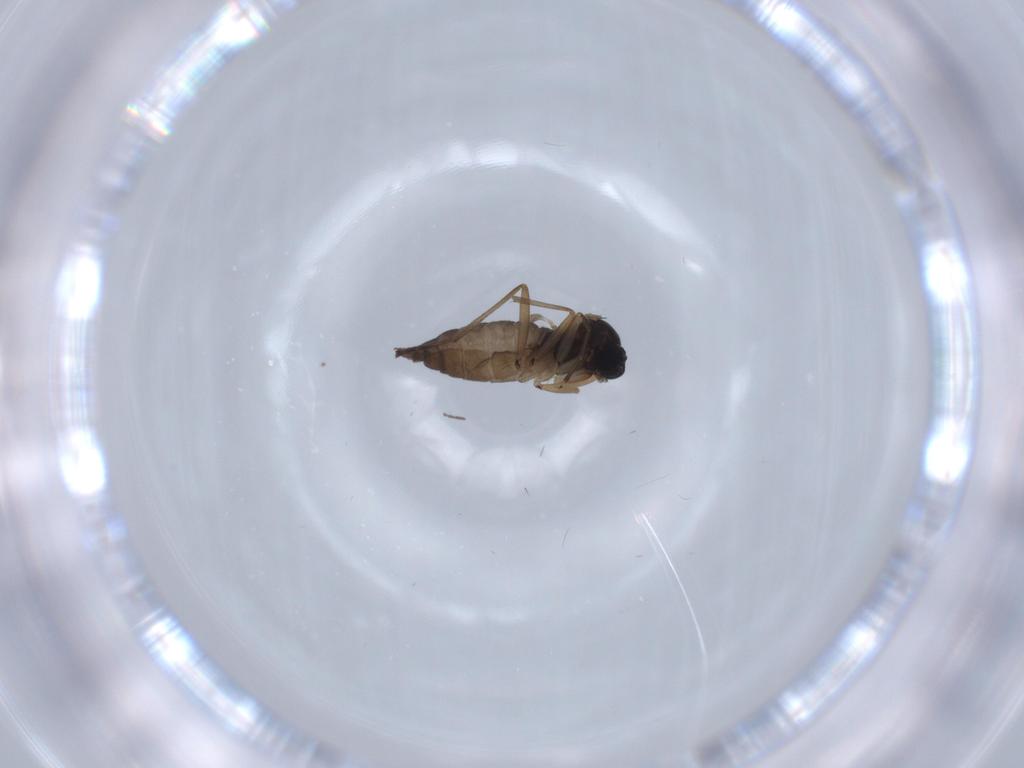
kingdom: Animalia
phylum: Arthropoda
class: Insecta
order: Diptera
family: Sciaridae
